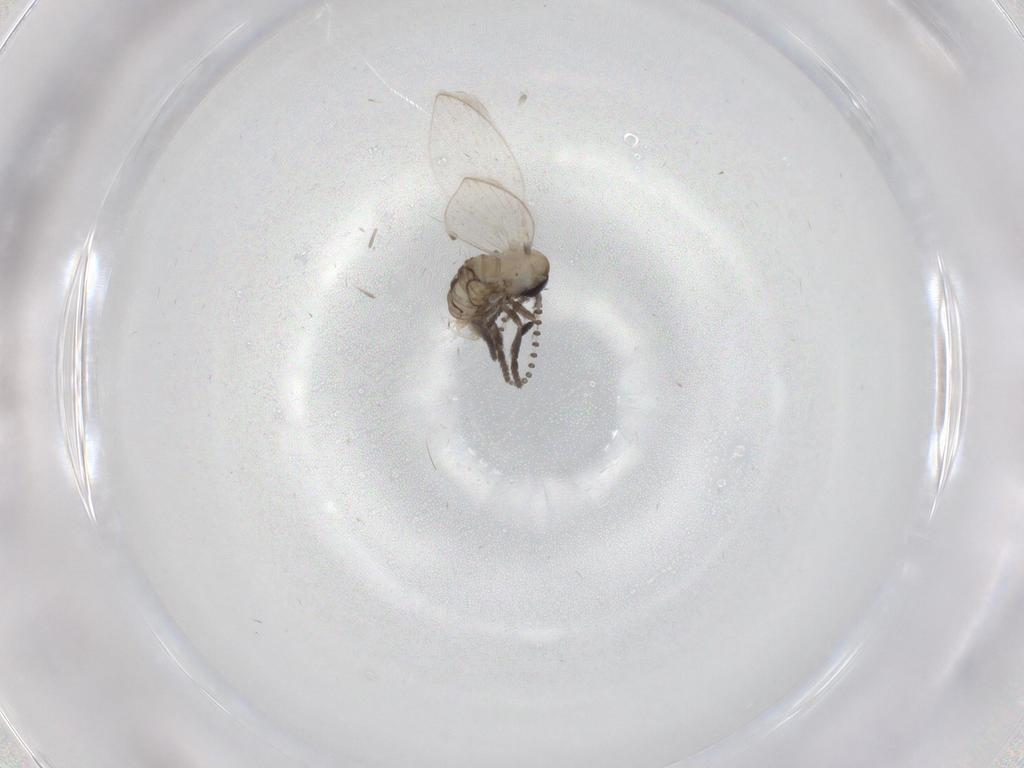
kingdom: Animalia
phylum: Arthropoda
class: Insecta
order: Diptera
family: Psychodidae
